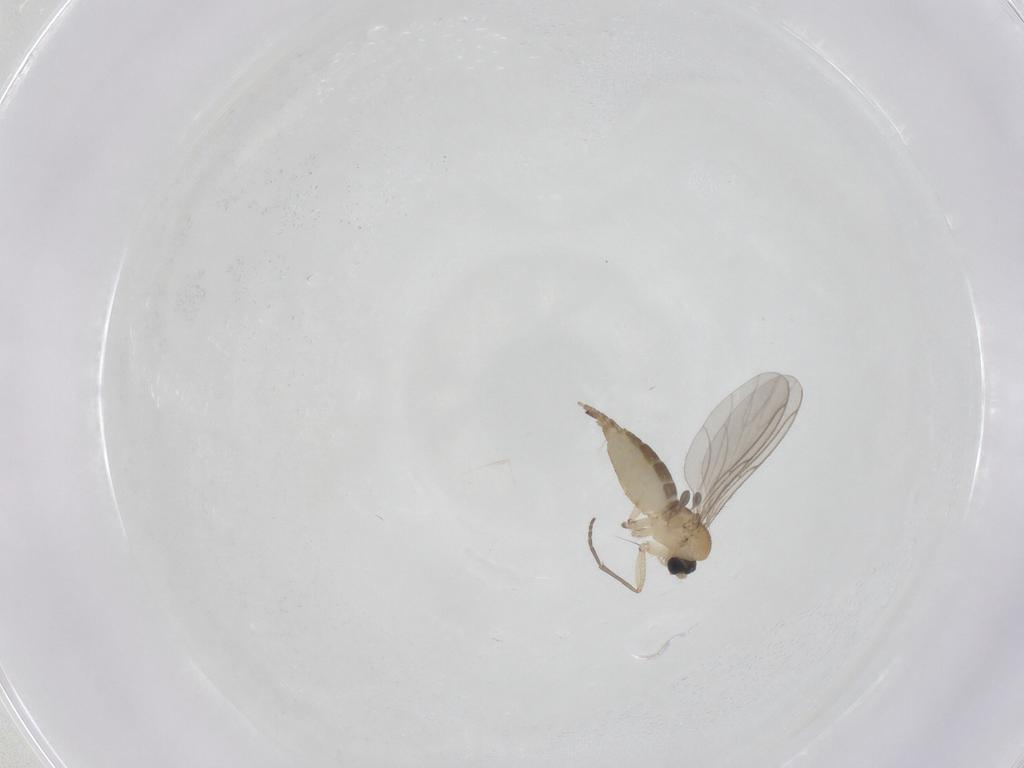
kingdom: Animalia
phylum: Arthropoda
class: Insecta
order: Diptera
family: Sciaridae
